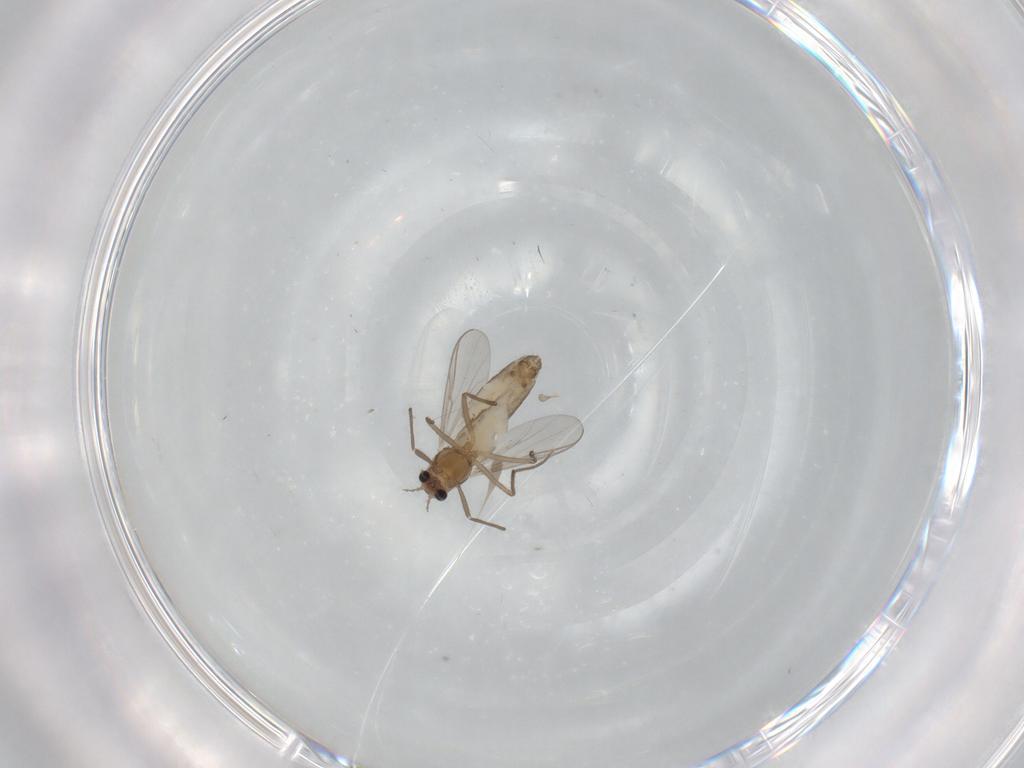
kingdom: Animalia
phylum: Arthropoda
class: Insecta
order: Diptera
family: Chironomidae
